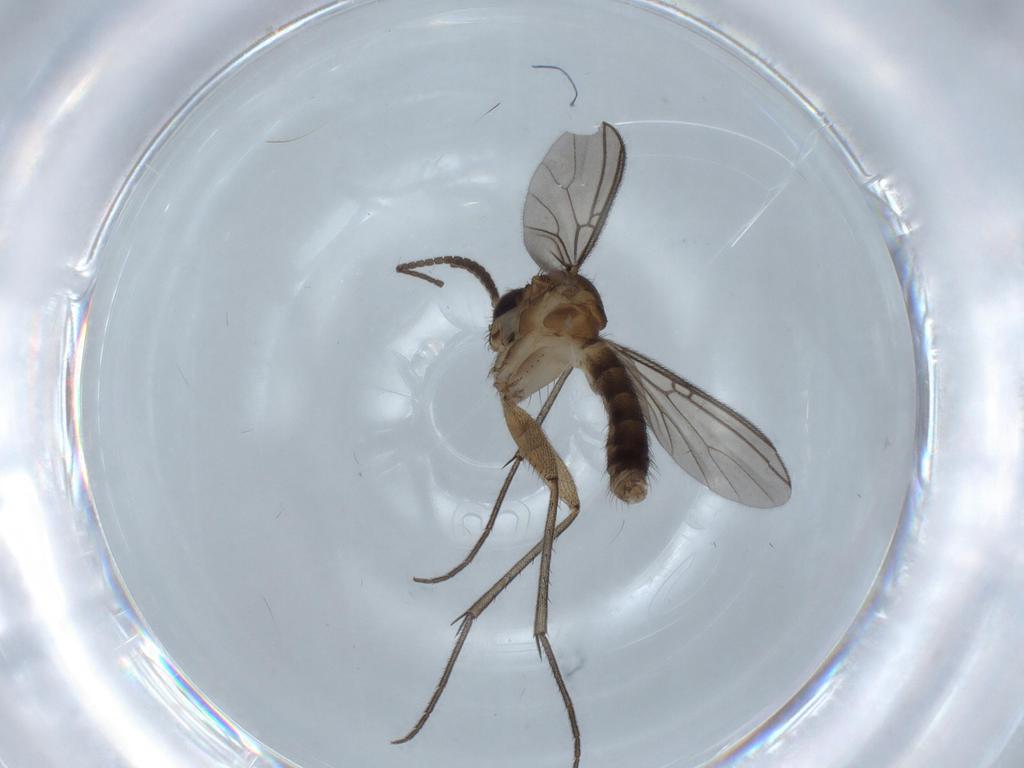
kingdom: Animalia
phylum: Arthropoda
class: Insecta
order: Diptera
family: Mycetophilidae
